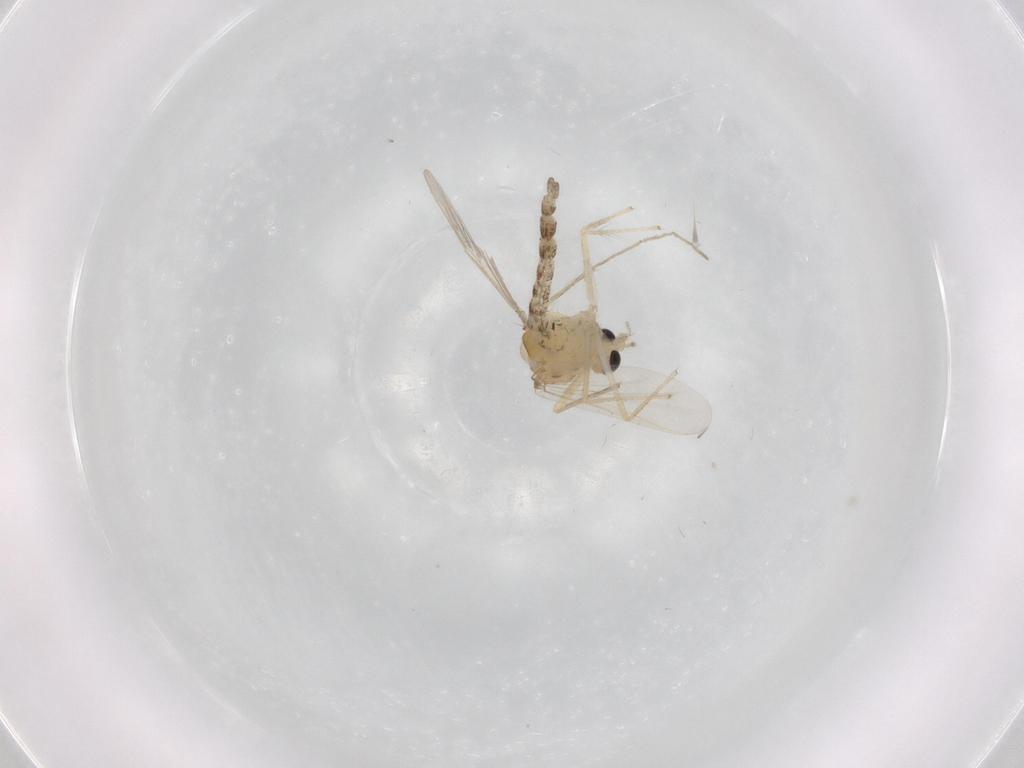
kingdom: Animalia
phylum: Arthropoda
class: Insecta
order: Diptera
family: Chironomidae
